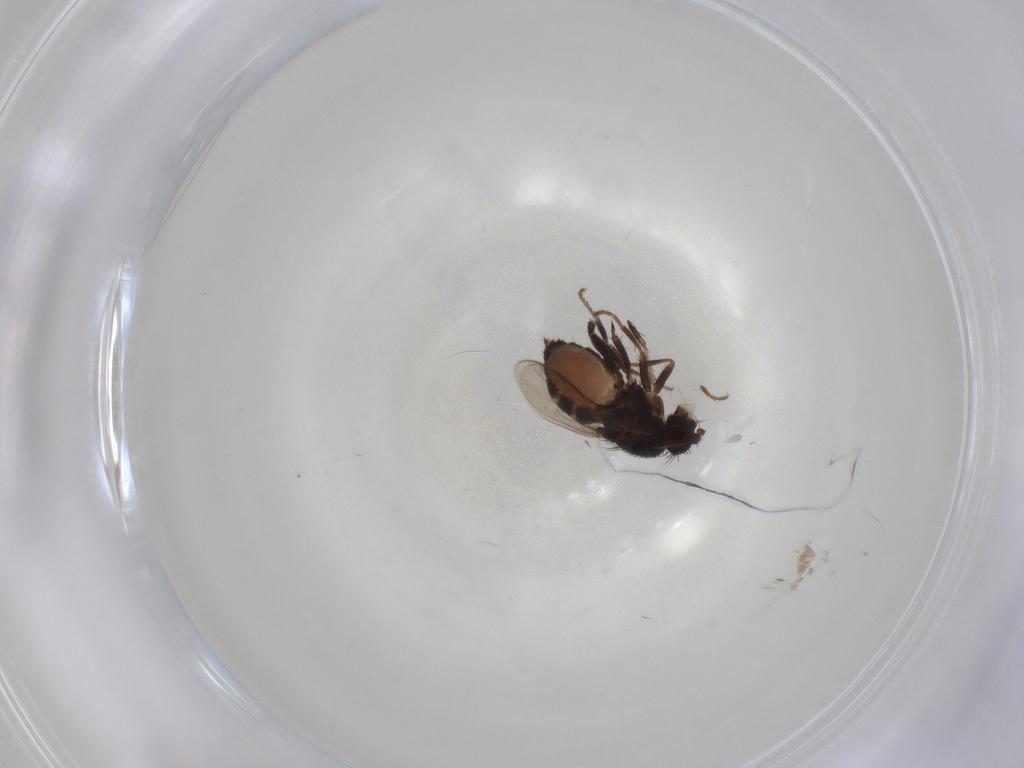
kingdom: Animalia
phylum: Arthropoda
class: Insecta
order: Diptera
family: Sphaeroceridae
